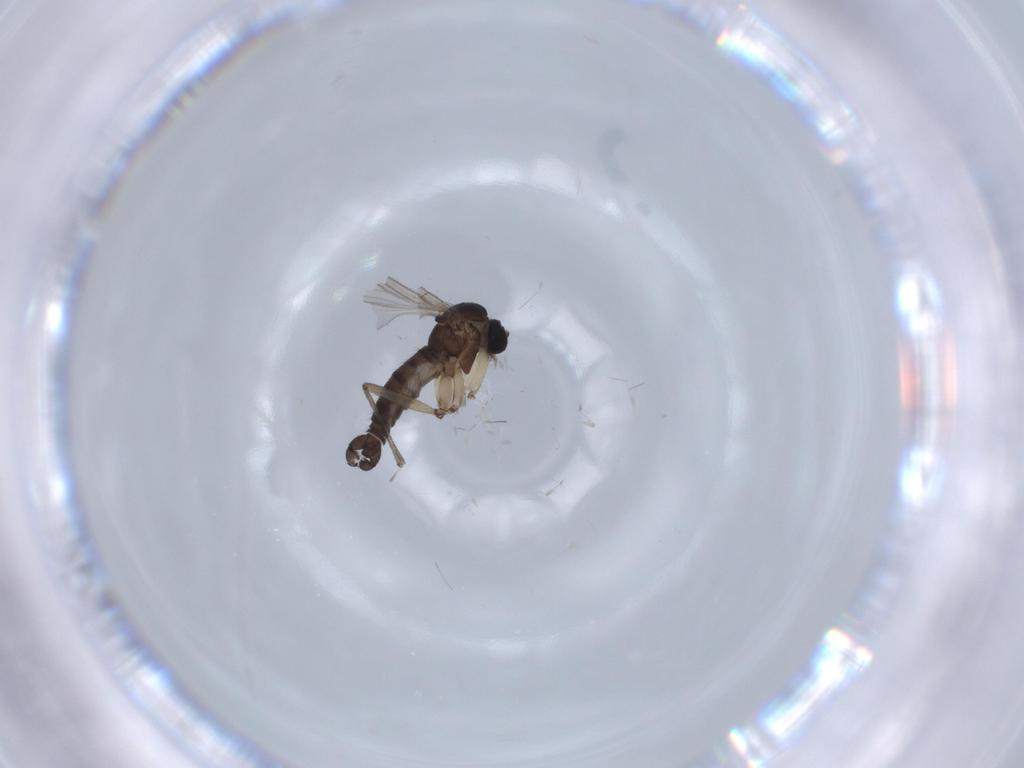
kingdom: Animalia
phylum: Arthropoda
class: Insecta
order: Diptera
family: Sciaridae
